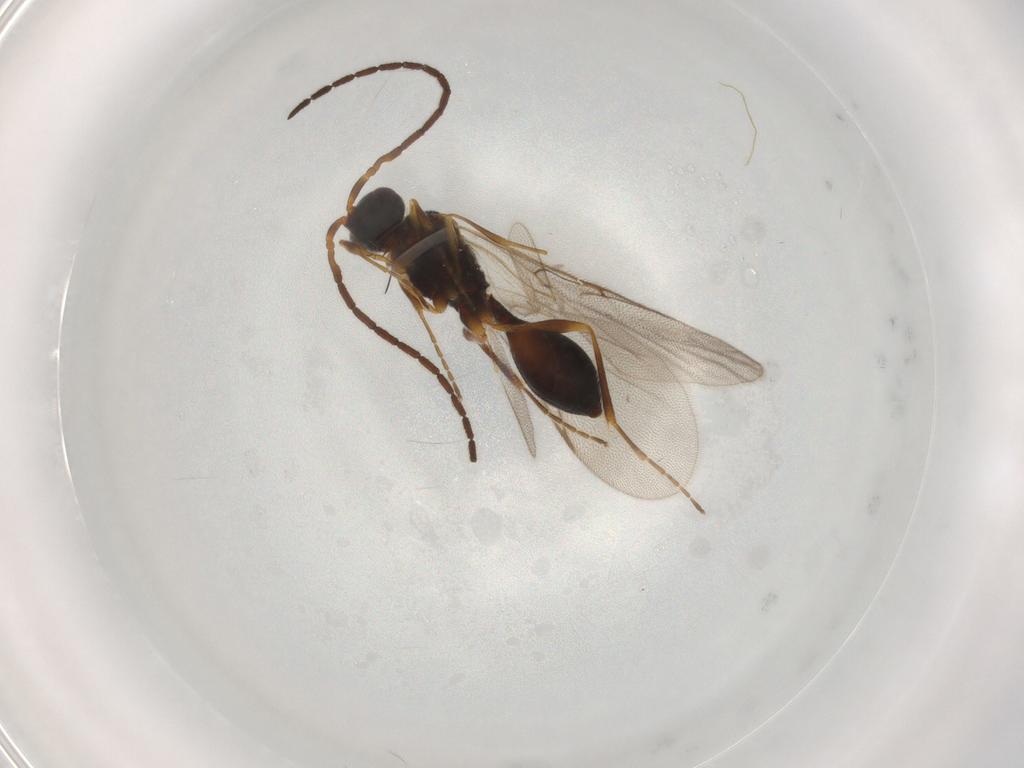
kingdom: Animalia
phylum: Arthropoda
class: Insecta
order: Hymenoptera
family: Diapriidae
